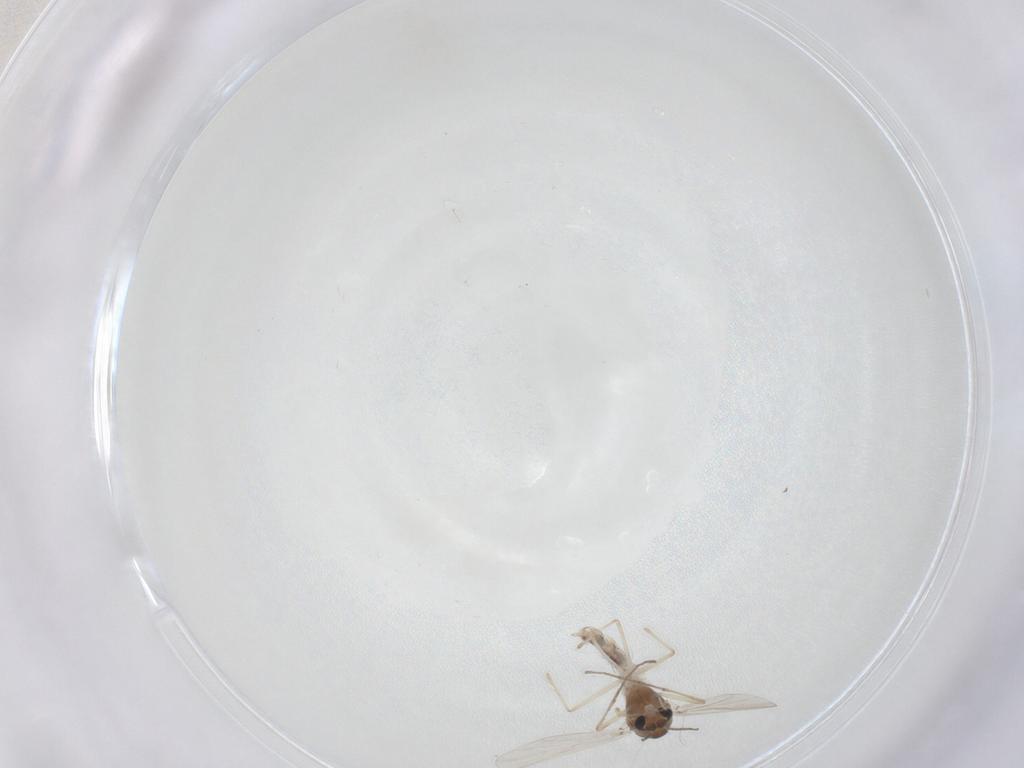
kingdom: Animalia
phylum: Arthropoda
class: Insecta
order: Diptera
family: Chironomidae
